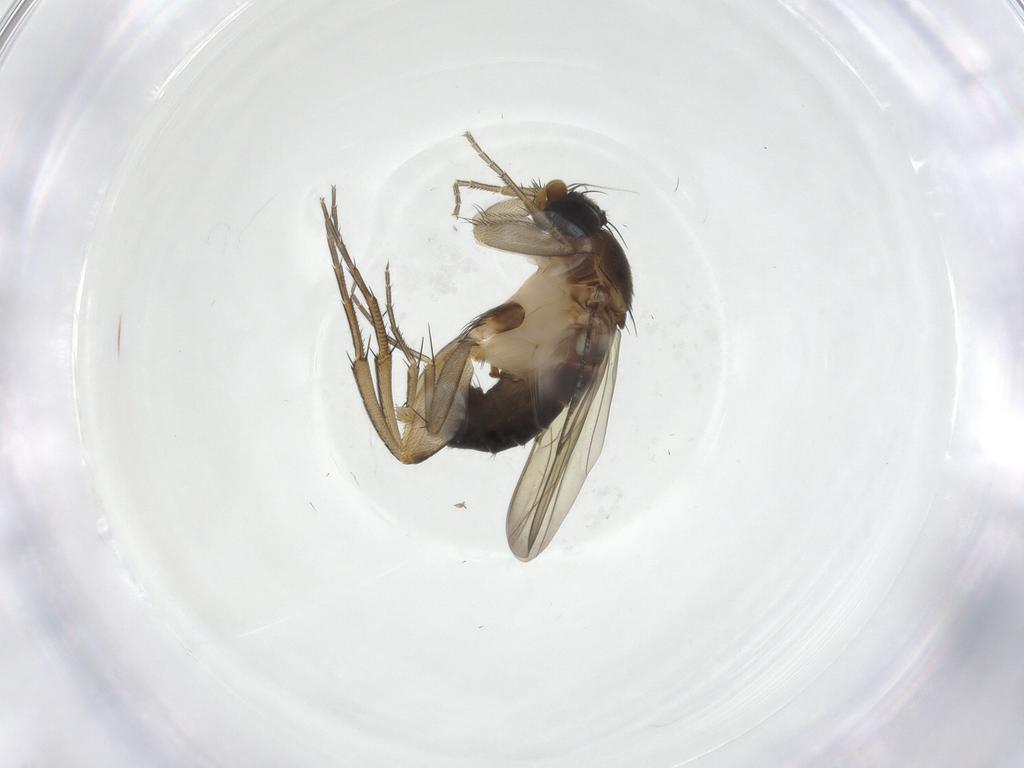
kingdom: Animalia
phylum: Arthropoda
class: Insecta
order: Diptera
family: Phoridae
